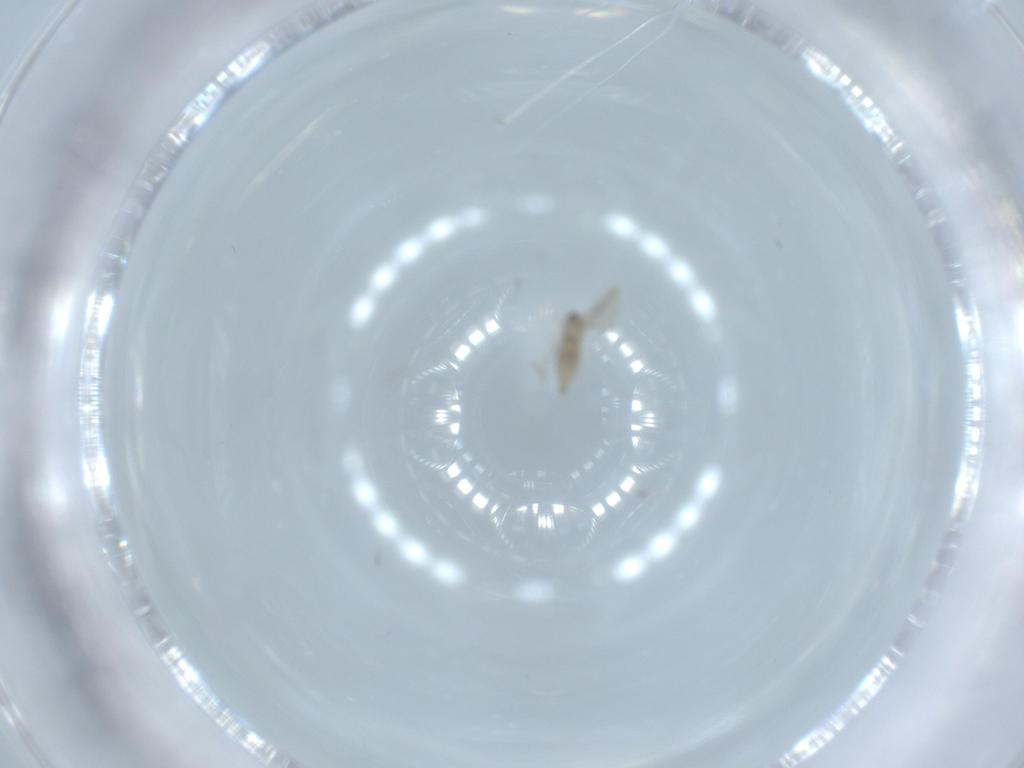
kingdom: Animalia
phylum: Arthropoda
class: Insecta
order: Diptera
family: Cecidomyiidae
